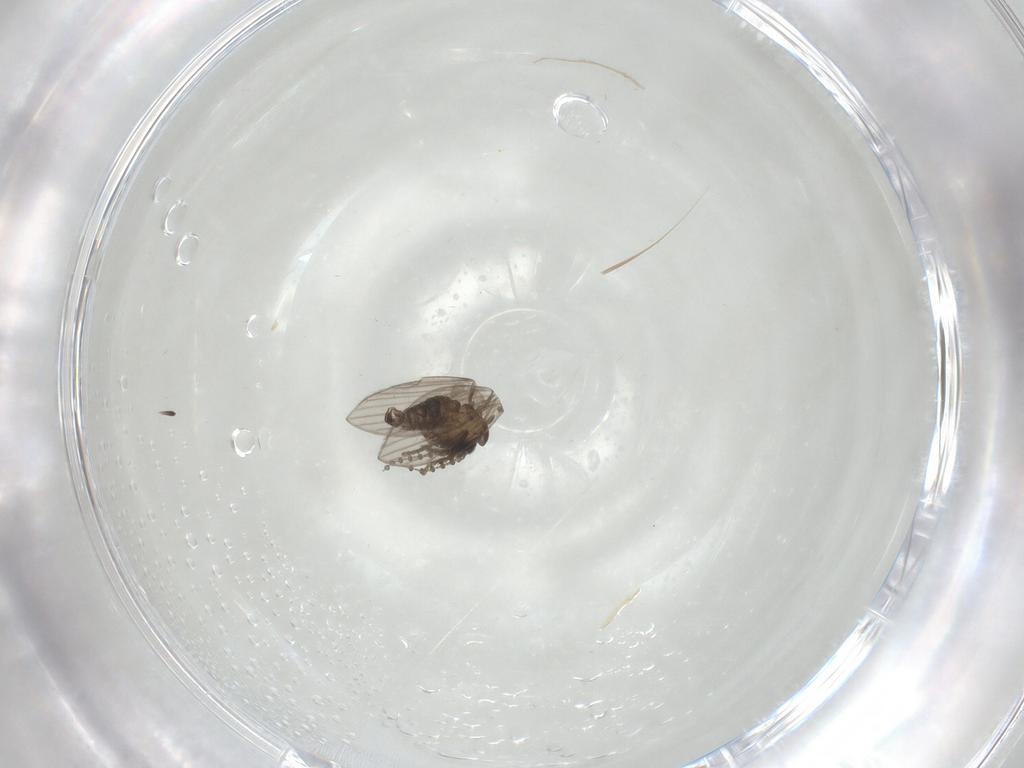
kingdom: Animalia
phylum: Arthropoda
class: Insecta
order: Diptera
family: Psychodidae
